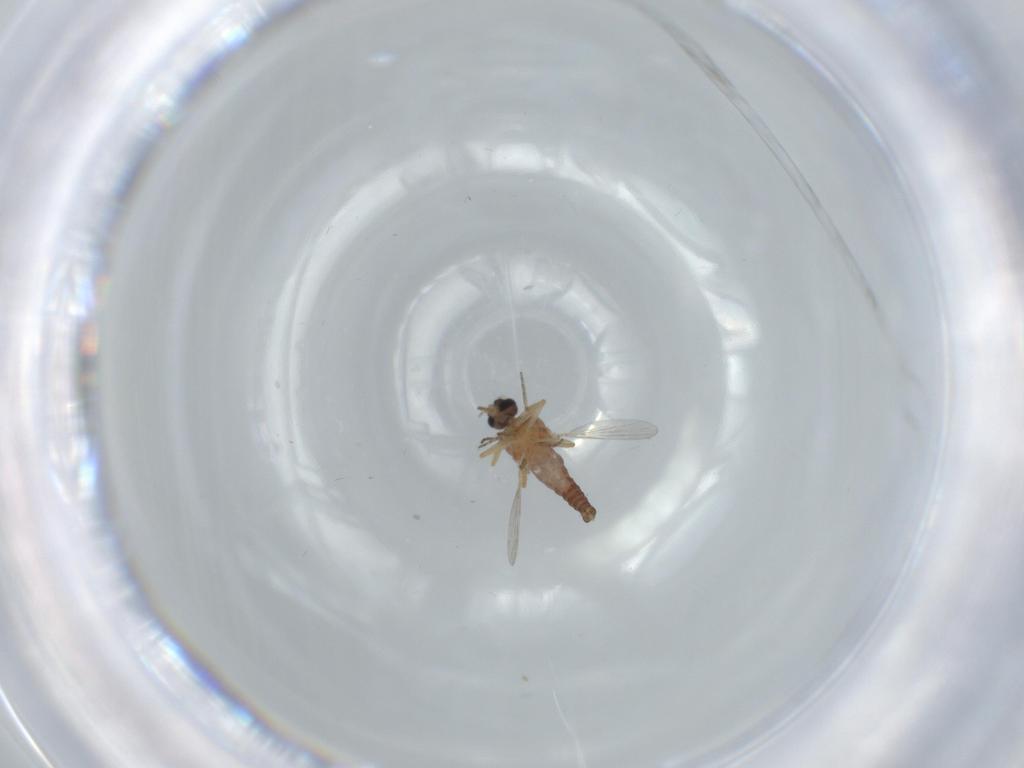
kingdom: Animalia
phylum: Arthropoda
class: Insecta
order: Diptera
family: Ceratopogonidae
